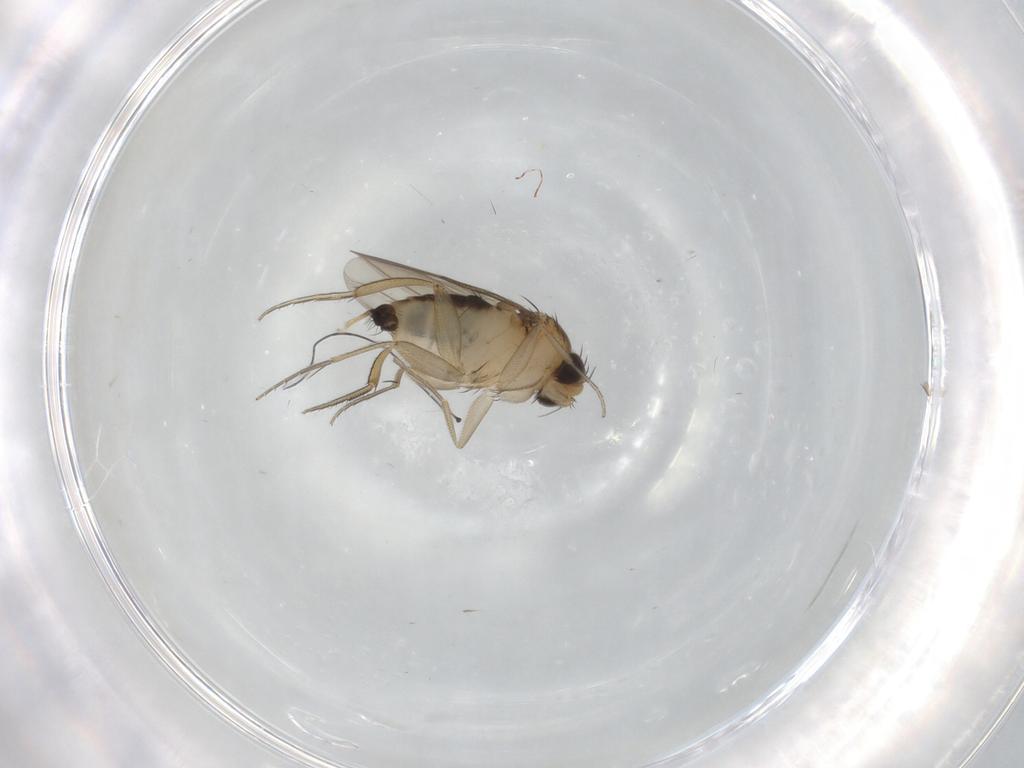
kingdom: Animalia
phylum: Arthropoda
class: Insecta
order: Diptera
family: Phoridae
